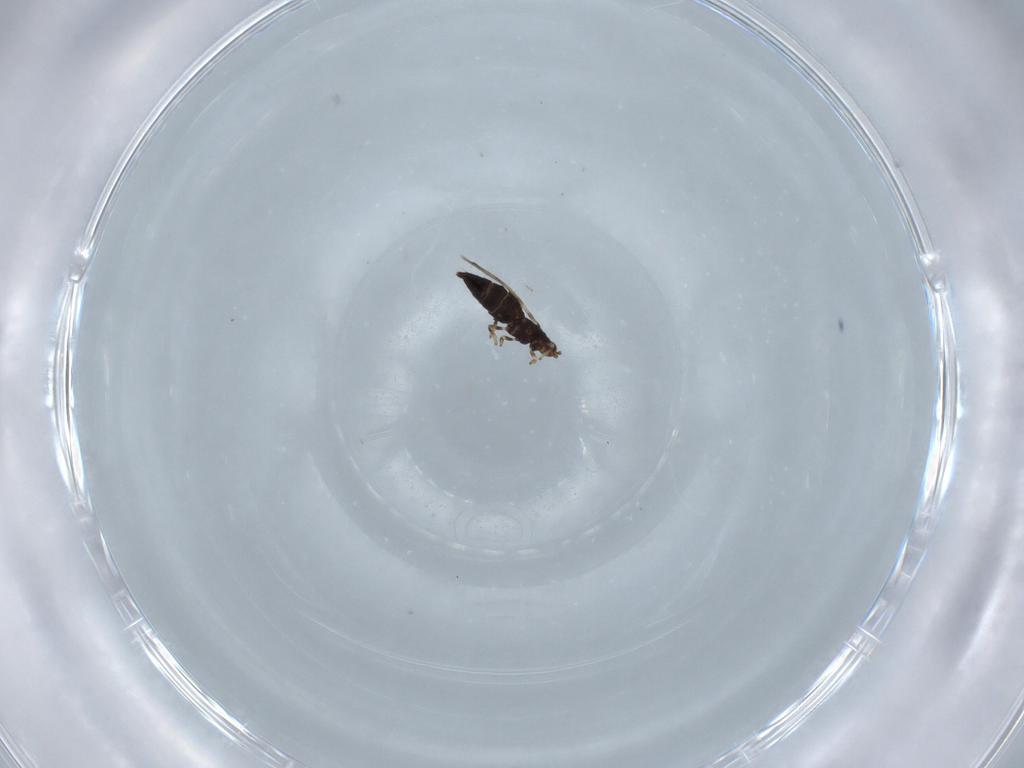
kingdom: Animalia
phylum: Arthropoda
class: Insecta
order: Thysanoptera
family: Thripidae
